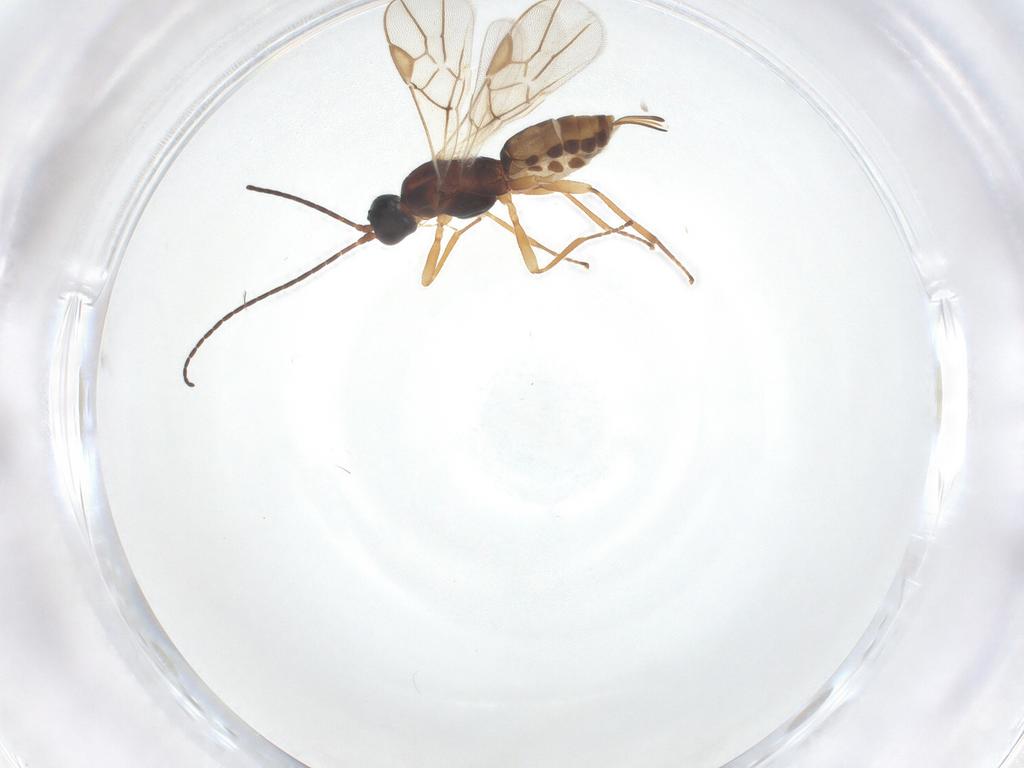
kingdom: Animalia
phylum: Arthropoda
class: Insecta
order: Hymenoptera
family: Braconidae
